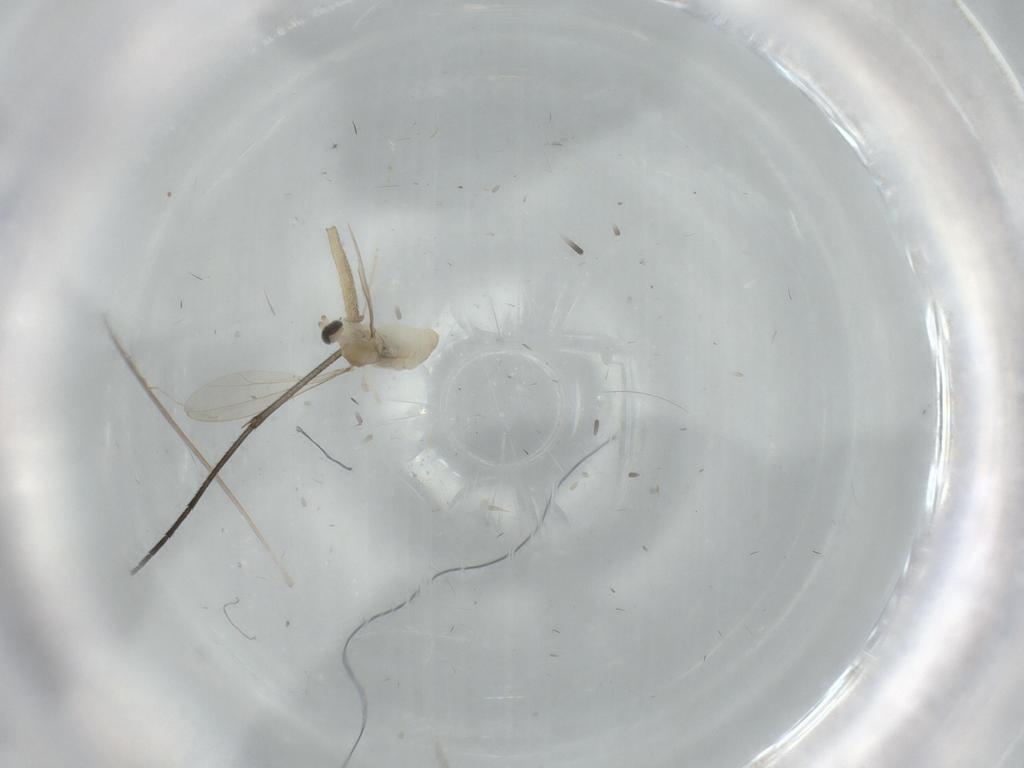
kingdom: Animalia
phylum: Arthropoda
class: Insecta
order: Diptera
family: Cecidomyiidae
